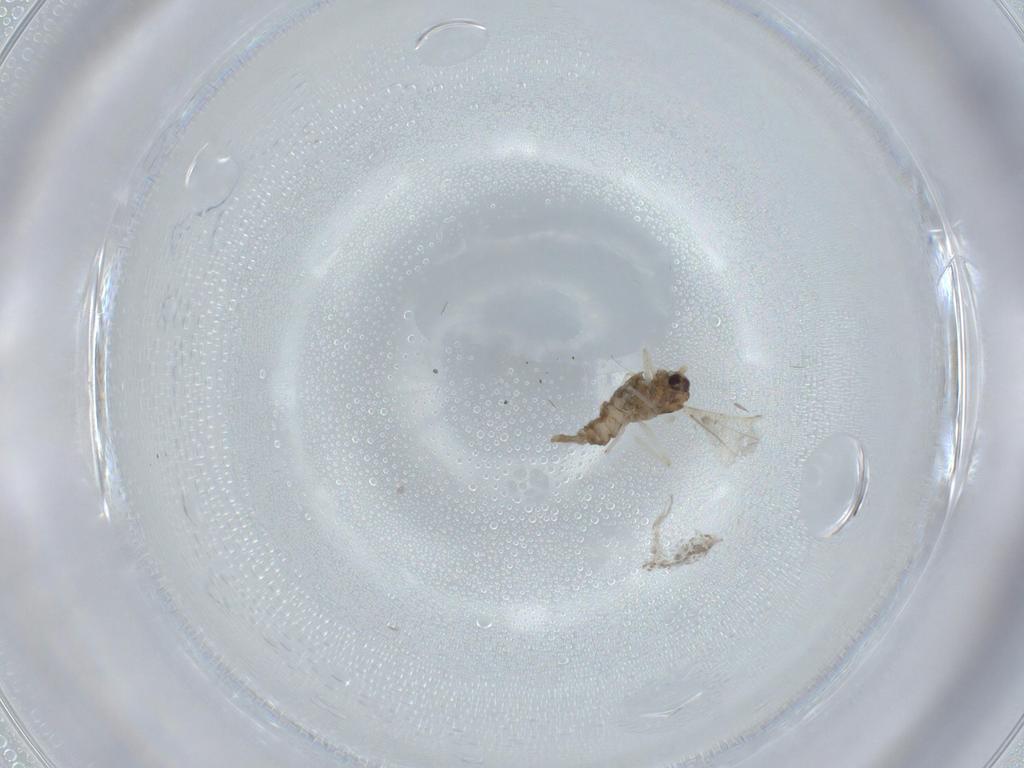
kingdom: Animalia
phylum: Arthropoda
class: Insecta
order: Diptera
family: Cecidomyiidae
